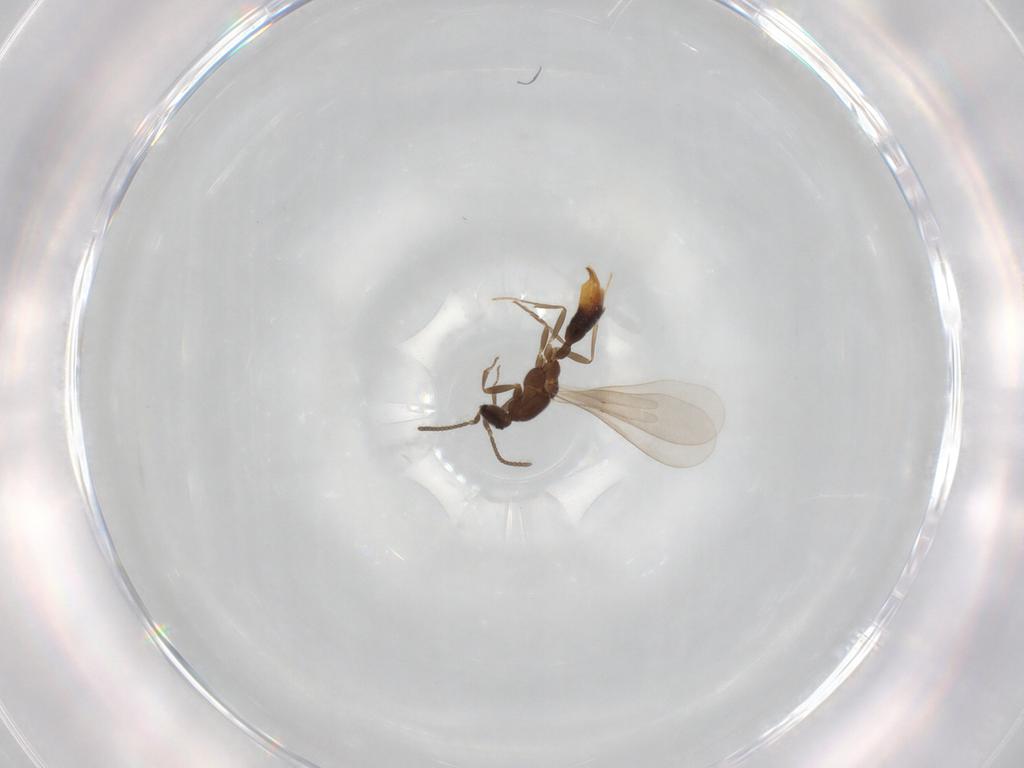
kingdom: Animalia
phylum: Arthropoda
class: Insecta
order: Hymenoptera
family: Formicidae
